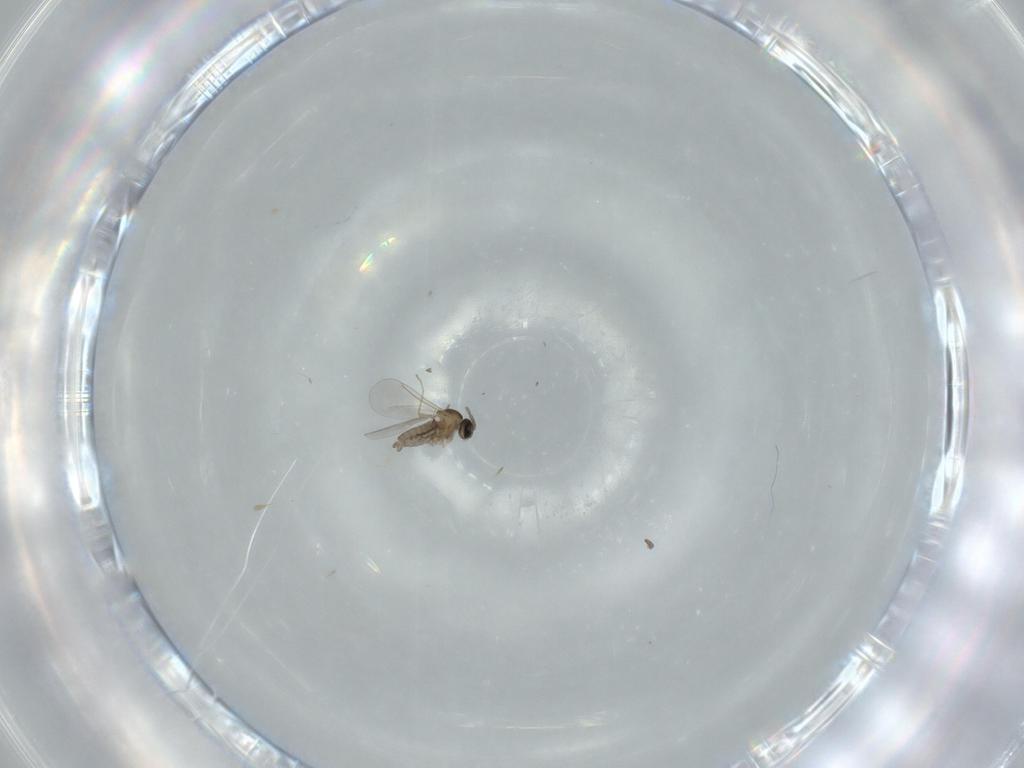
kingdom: Animalia
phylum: Arthropoda
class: Insecta
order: Diptera
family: Cecidomyiidae
